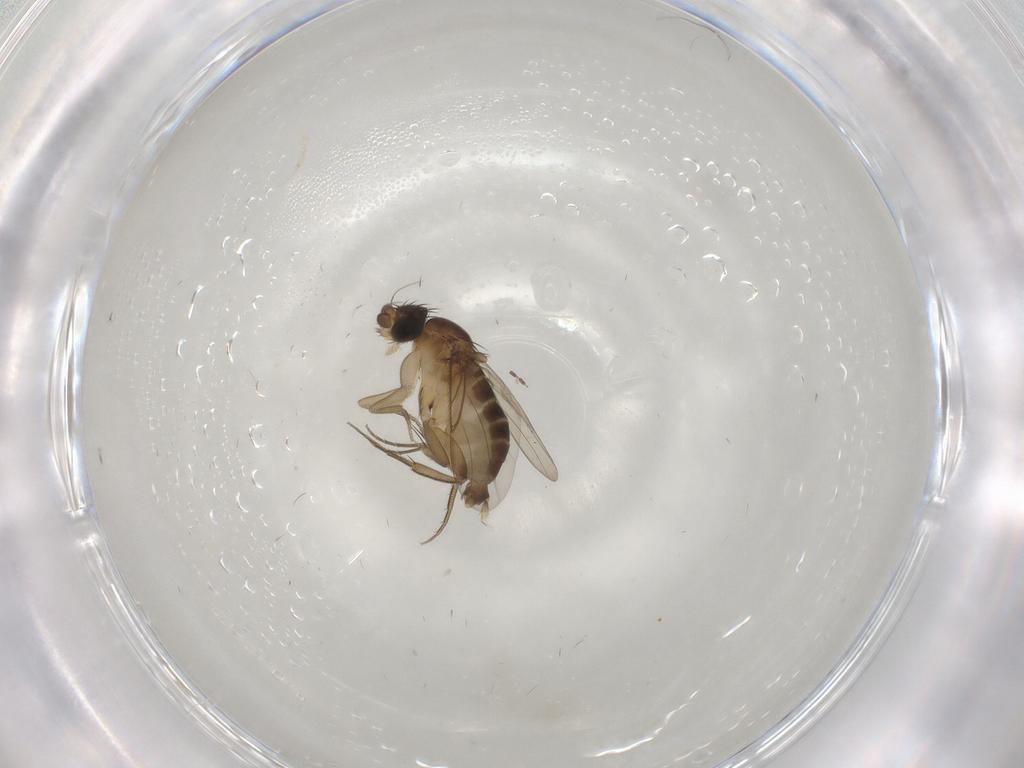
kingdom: Animalia
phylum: Arthropoda
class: Insecta
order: Diptera
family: Phoridae
